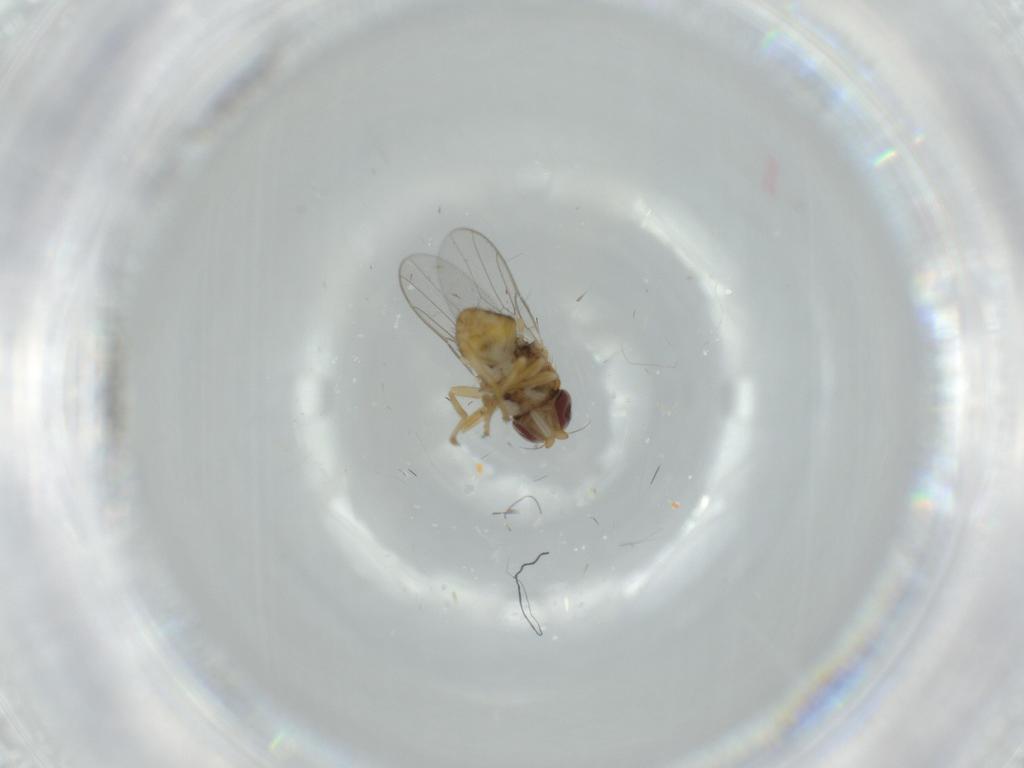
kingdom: Animalia
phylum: Arthropoda
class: Insecta
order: Diptera
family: Chloropidae
